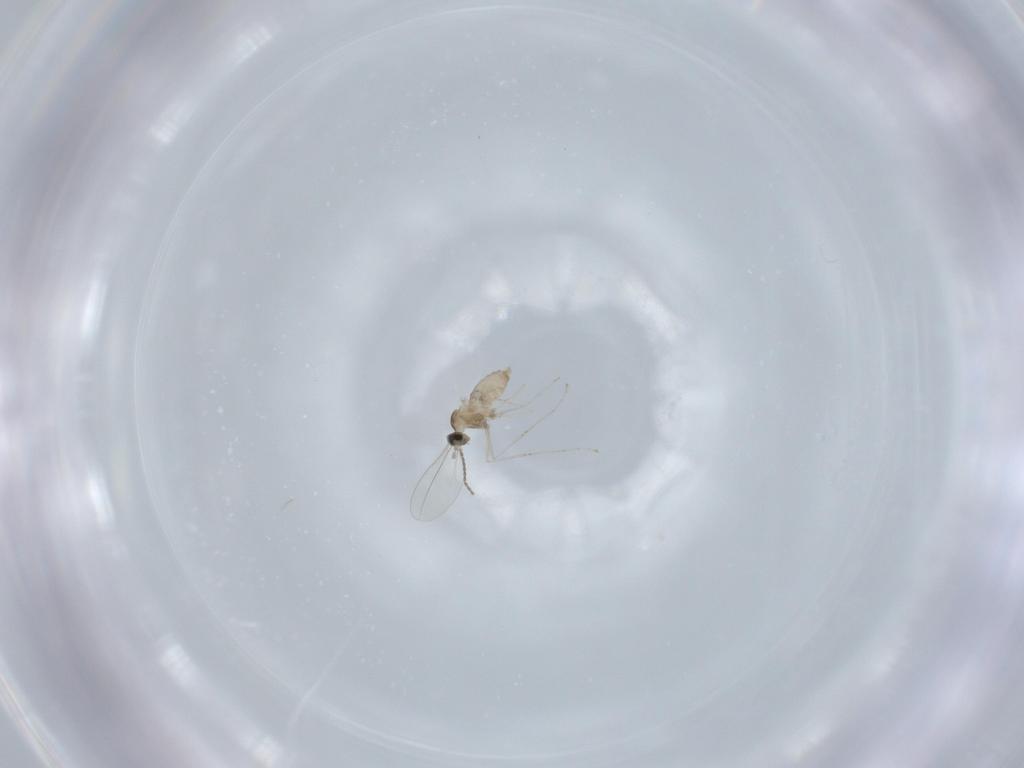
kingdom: Animalia
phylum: Arthropoda
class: Insecta
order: Diptera
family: Cecidomyiidae
